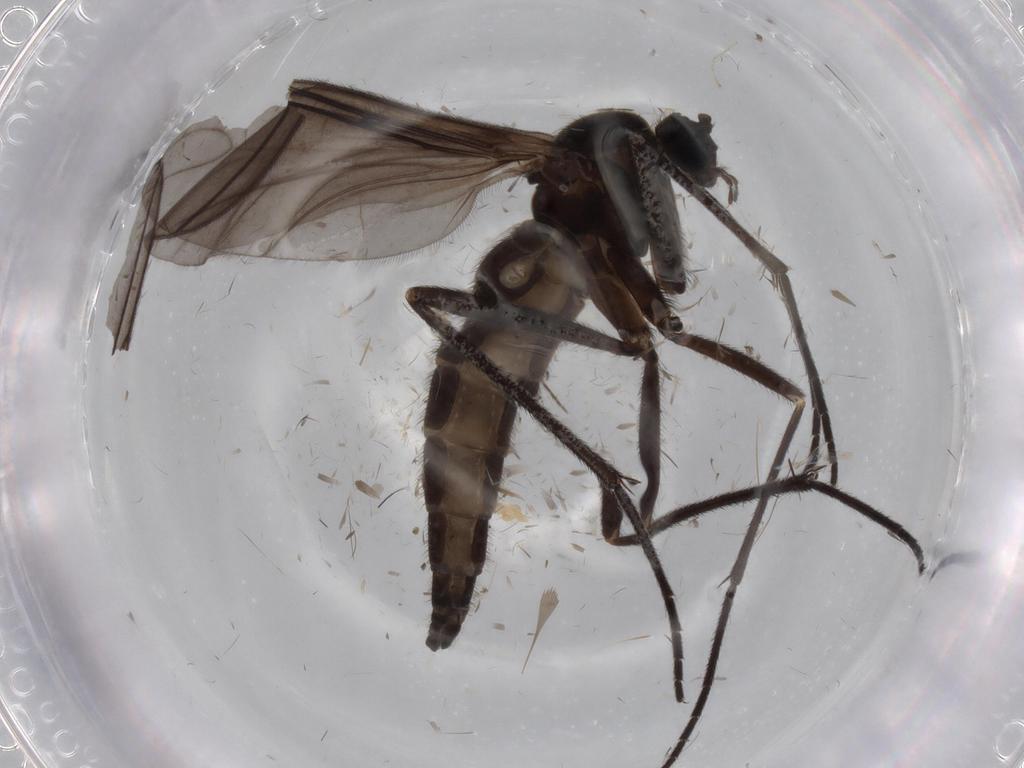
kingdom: Animalia
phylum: Arthropoda
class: Insecta
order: Diptera
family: Sciaridae
